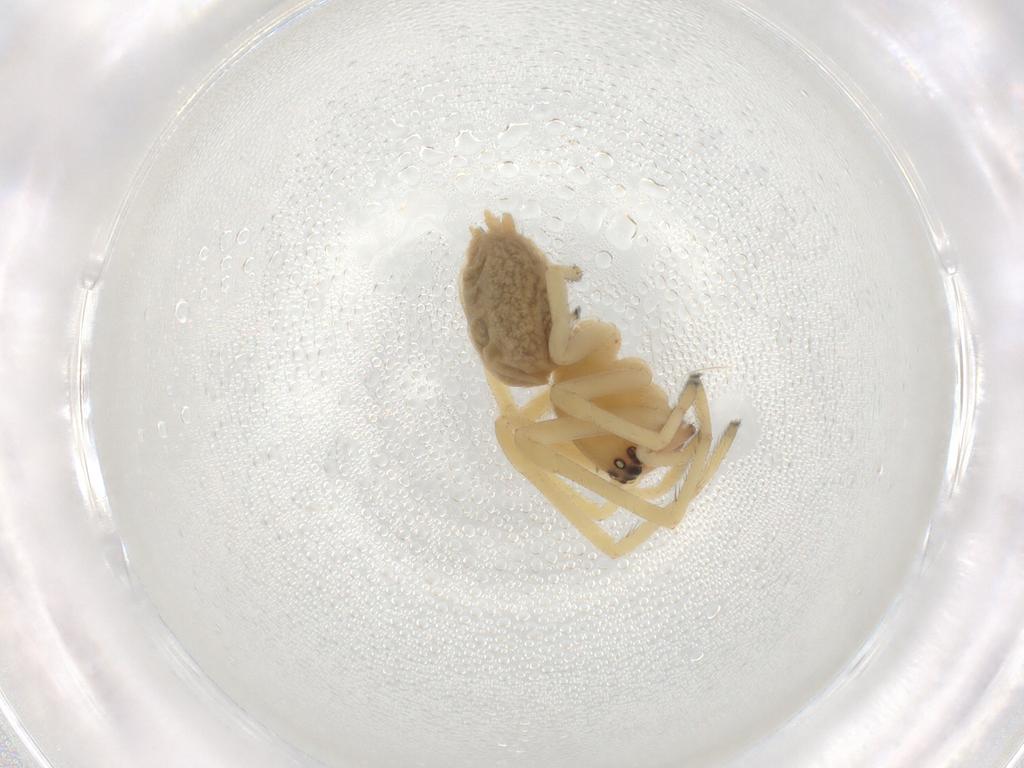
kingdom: Animalia
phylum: Arthropoda
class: Arachnida
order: Araneae
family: Cheiracanthiidae
